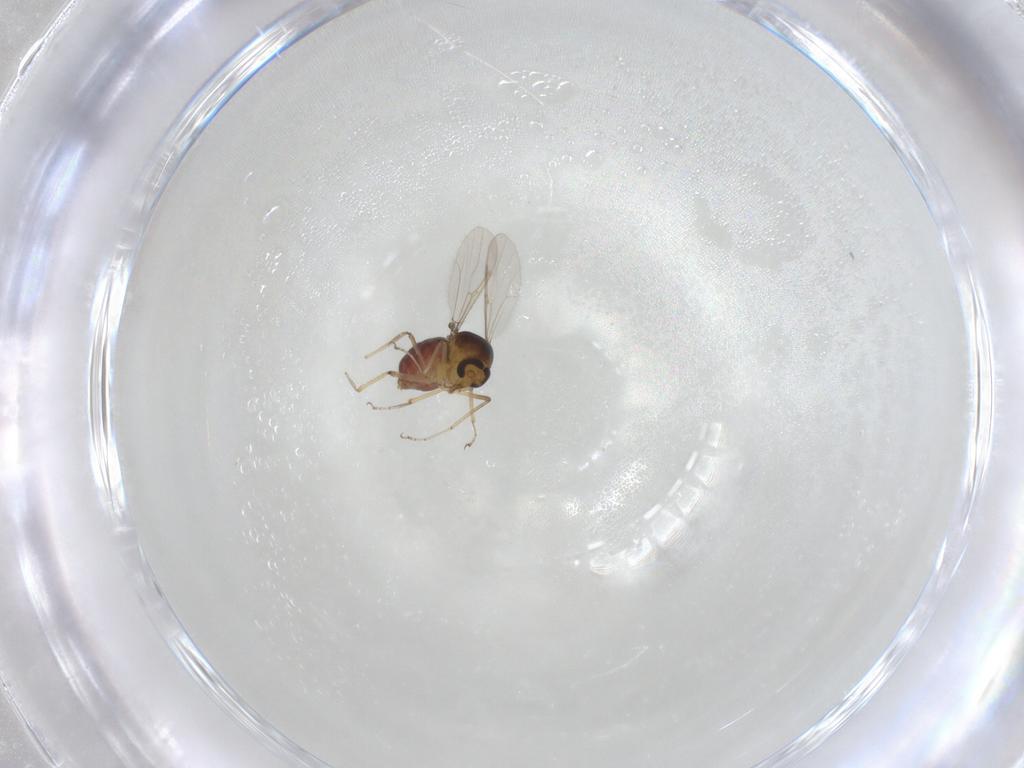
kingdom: Animalia
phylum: Arthropoda
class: Insecta
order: Diptera
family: Ceratopogonidae
